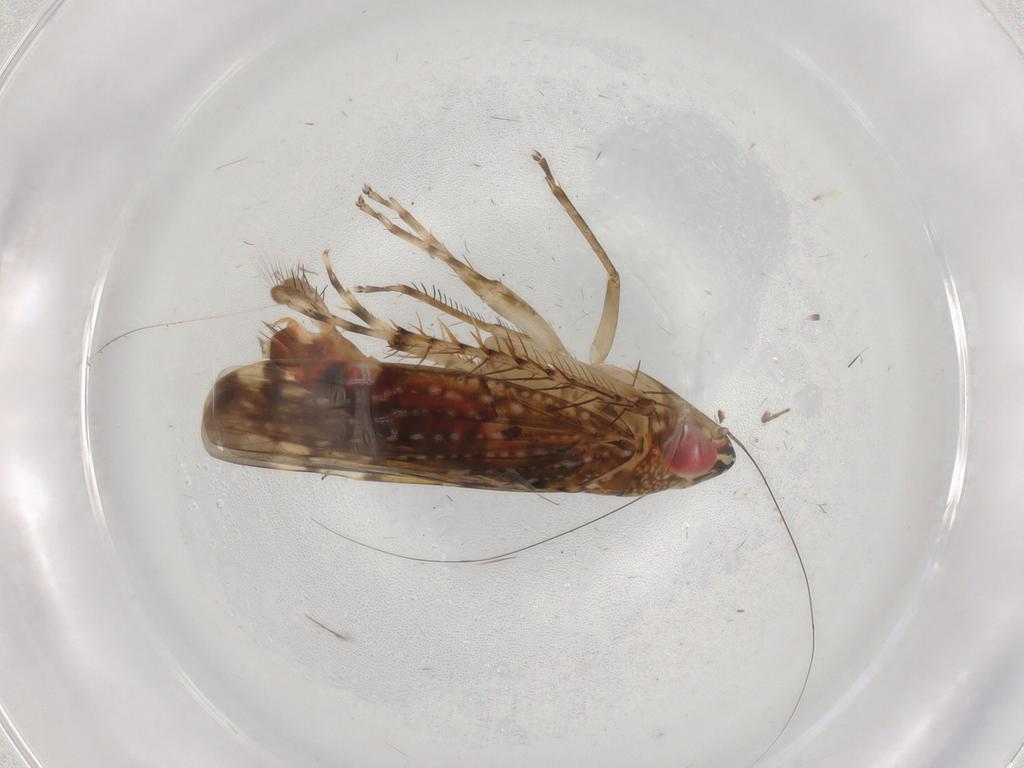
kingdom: Animalia
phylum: Arthropoda
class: Insecta
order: Hemiptera
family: Cicadellidae
